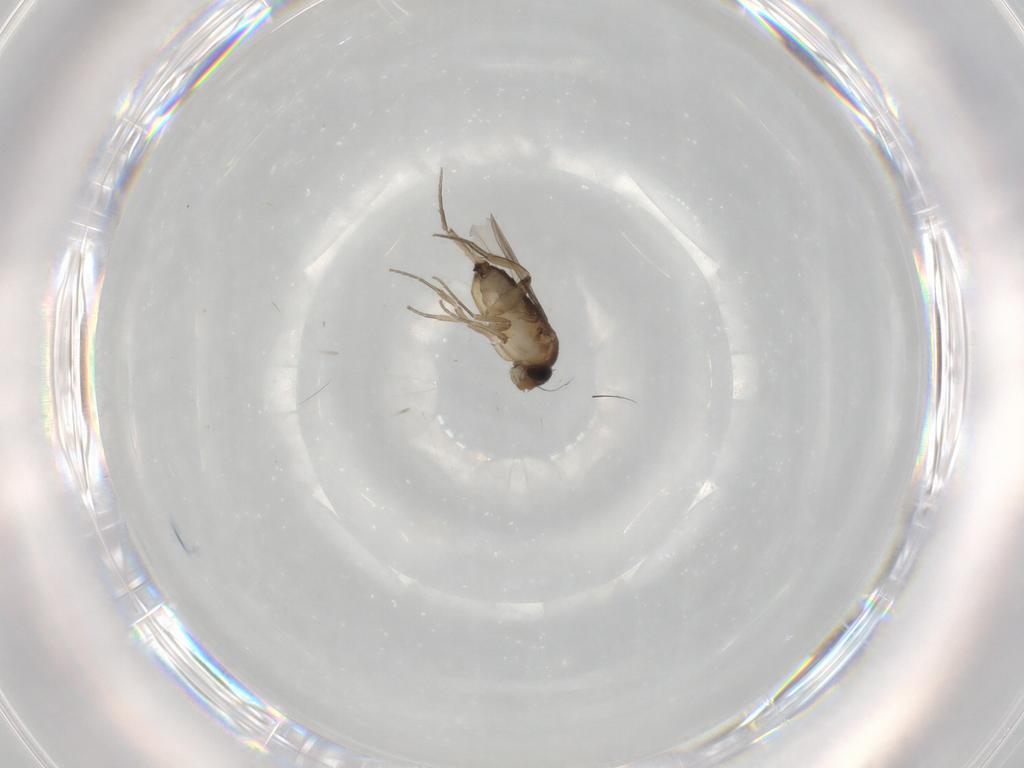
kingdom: Animalia
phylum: Arthropoda
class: Insecta
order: Diptera
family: Phoridae
